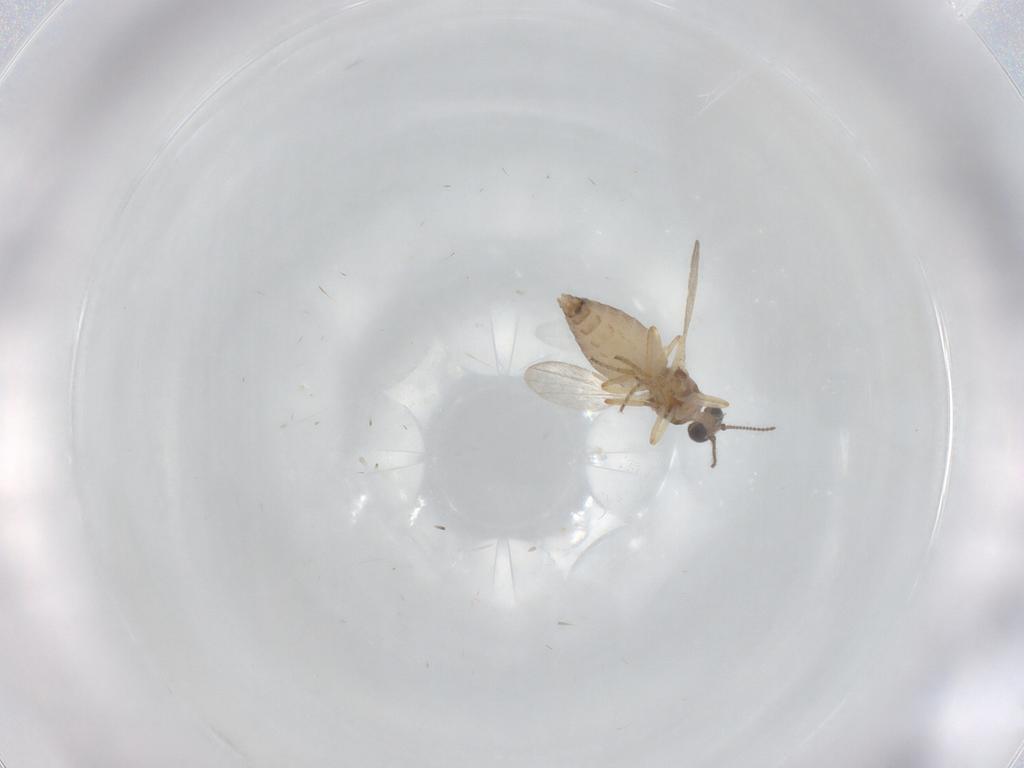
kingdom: Animalia
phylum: Arthropoda
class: Insecta
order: Diptera
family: Ceratopogonidae
